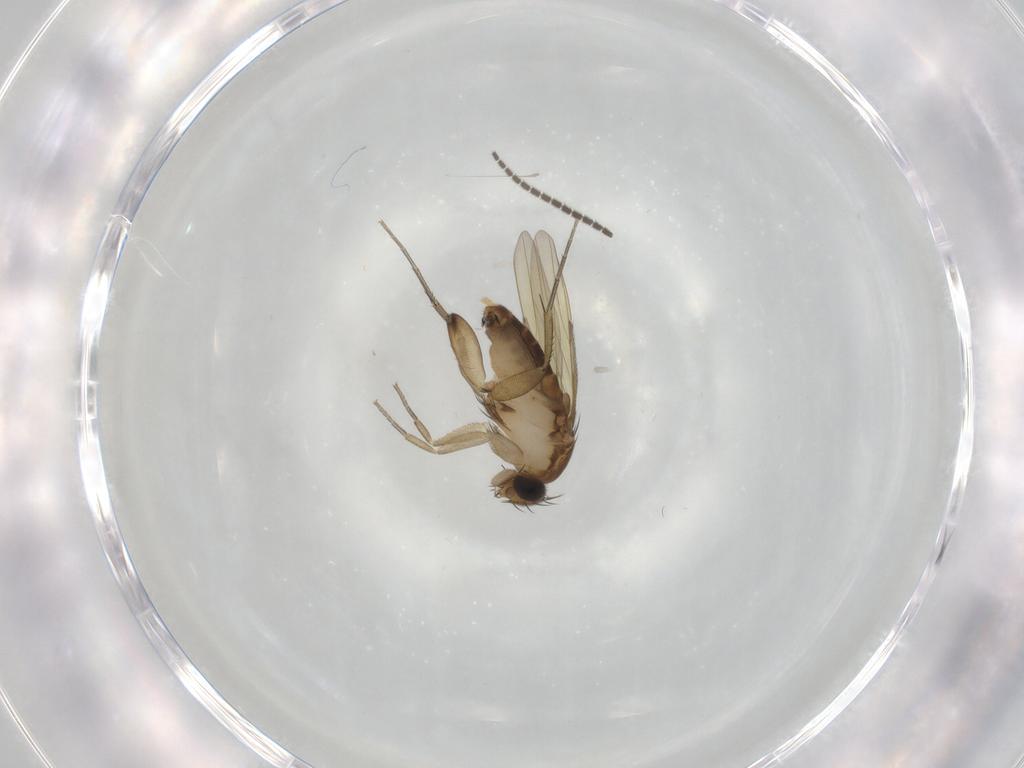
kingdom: Animalia
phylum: Arthropoda
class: Insecta
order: Diptera
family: Phoridae
